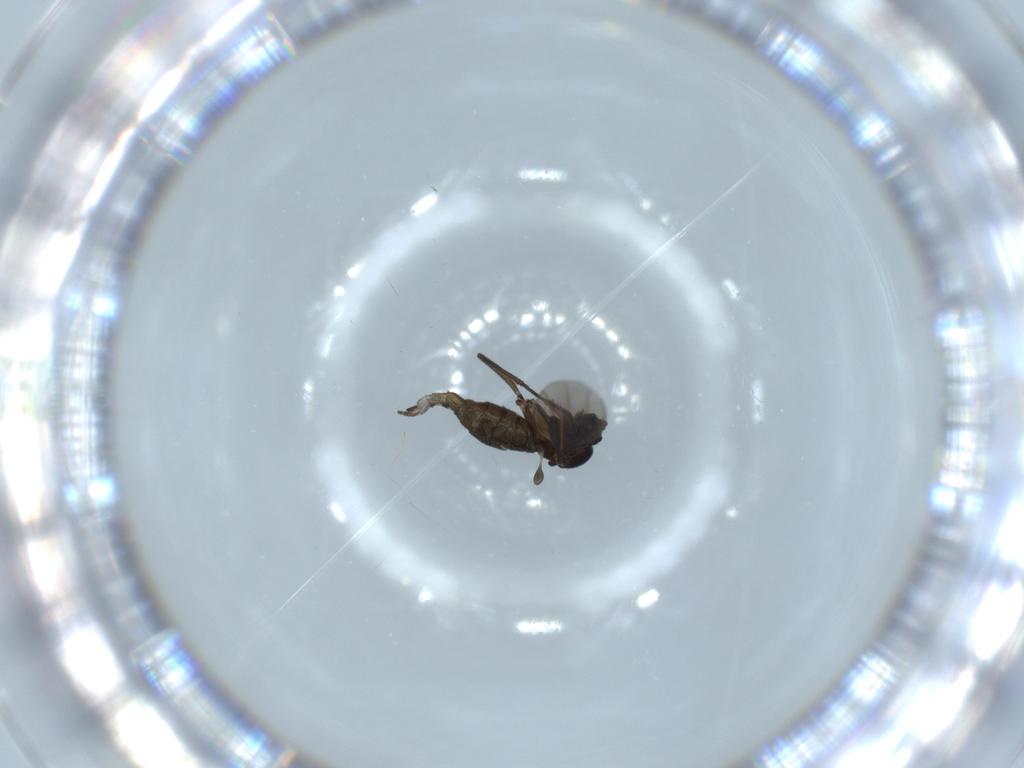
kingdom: Animalia
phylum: Arthropoda
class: Insecta
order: Diptera
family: Sciaridae
